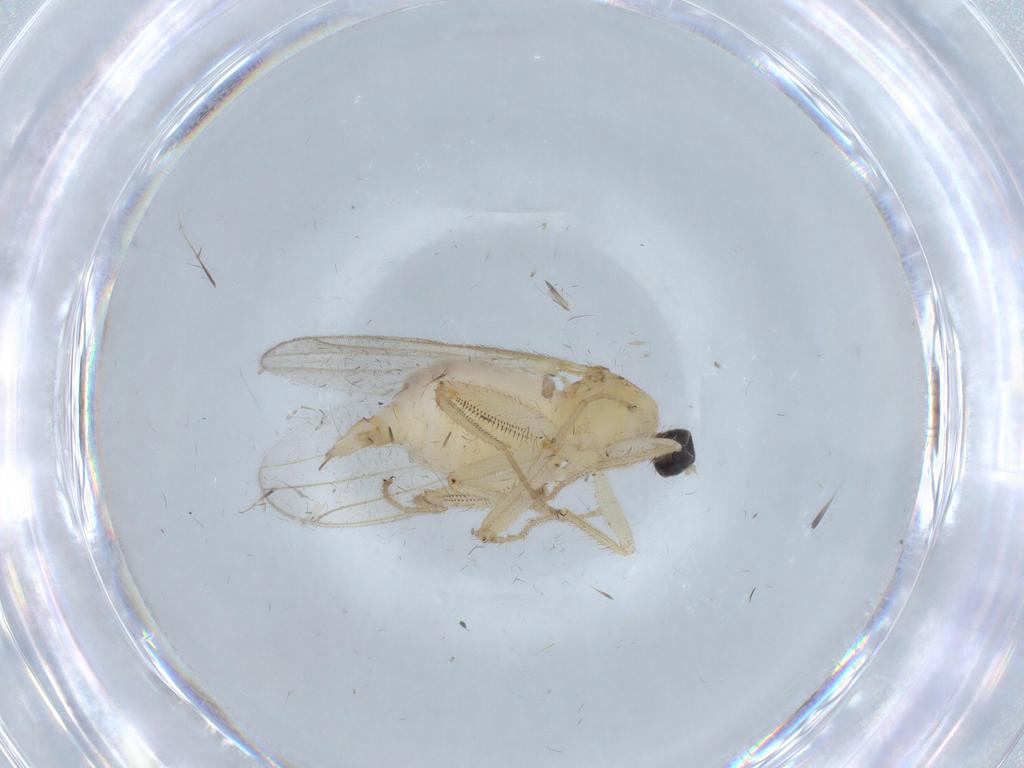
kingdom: Animalia
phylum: Arthropoda
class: Insecta
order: Diptera
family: Hybotidae
